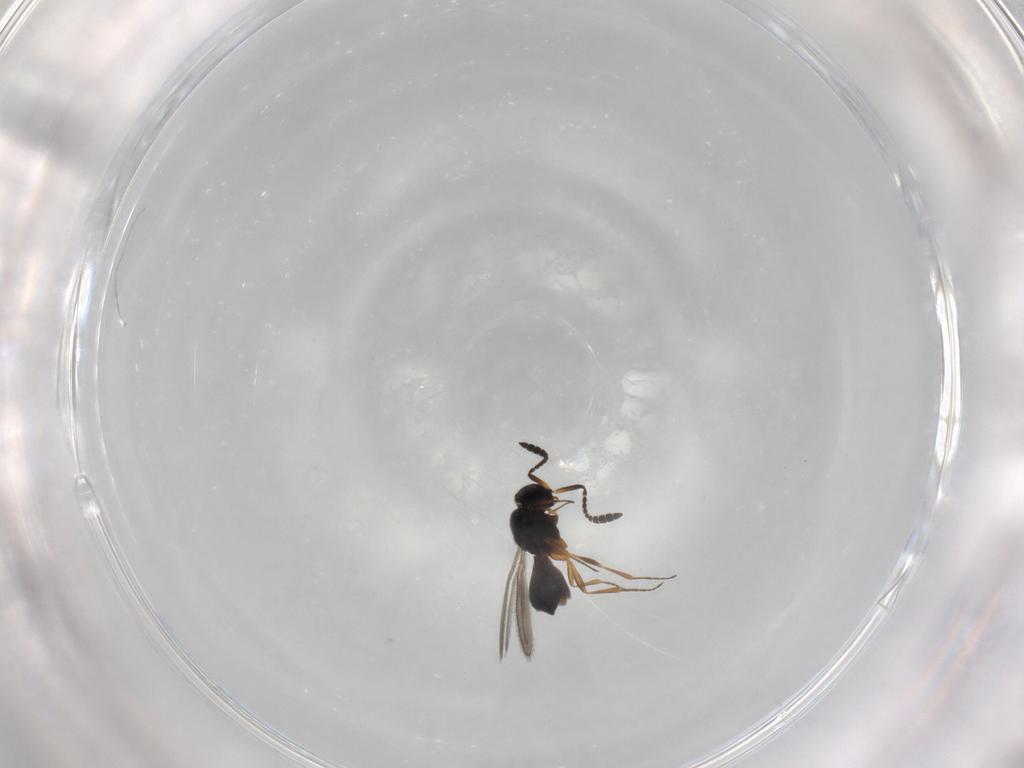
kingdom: Animalia
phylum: Arthropoda
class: Insecta
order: Hymenoptera
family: Scelionidae
